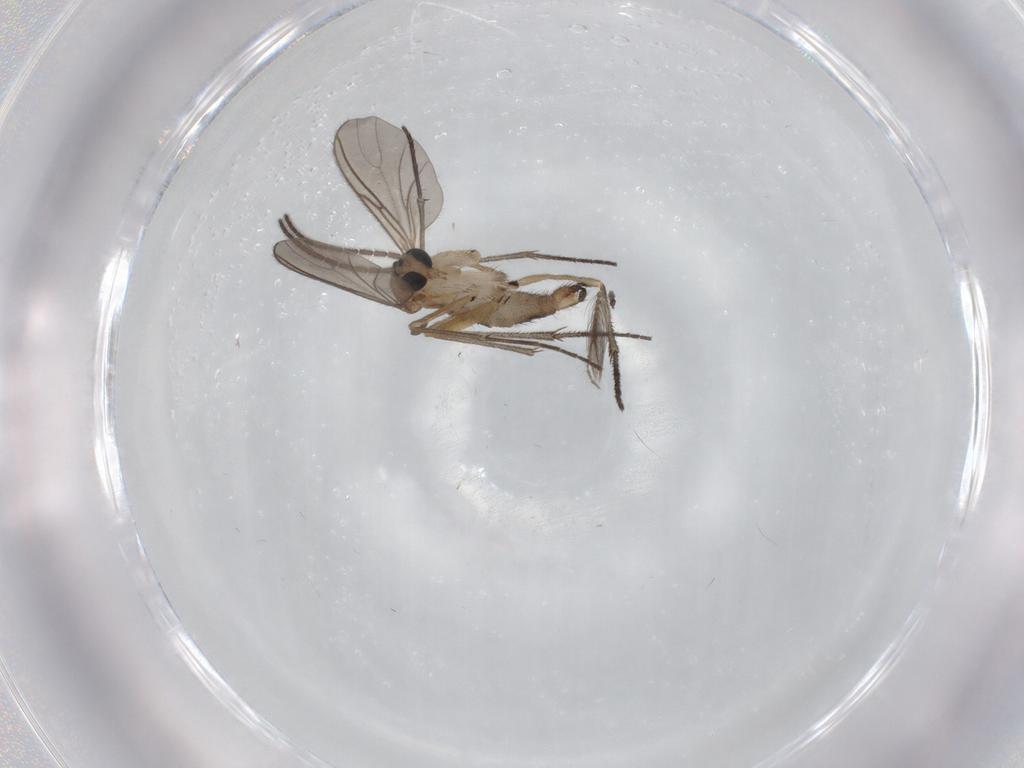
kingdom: Animalia
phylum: Arthropoda
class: Insecta
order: Diptera
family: Sciaridae
